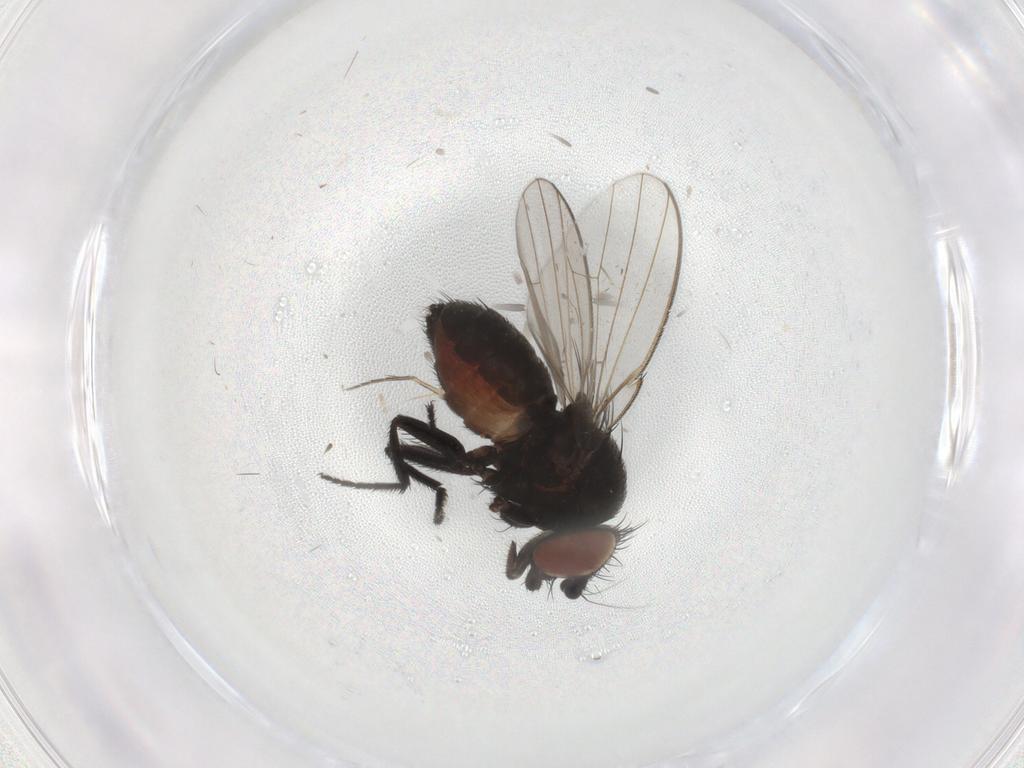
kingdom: Animalia
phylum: Arthropoda
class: Insecta
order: Diptera
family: Milichiidae
